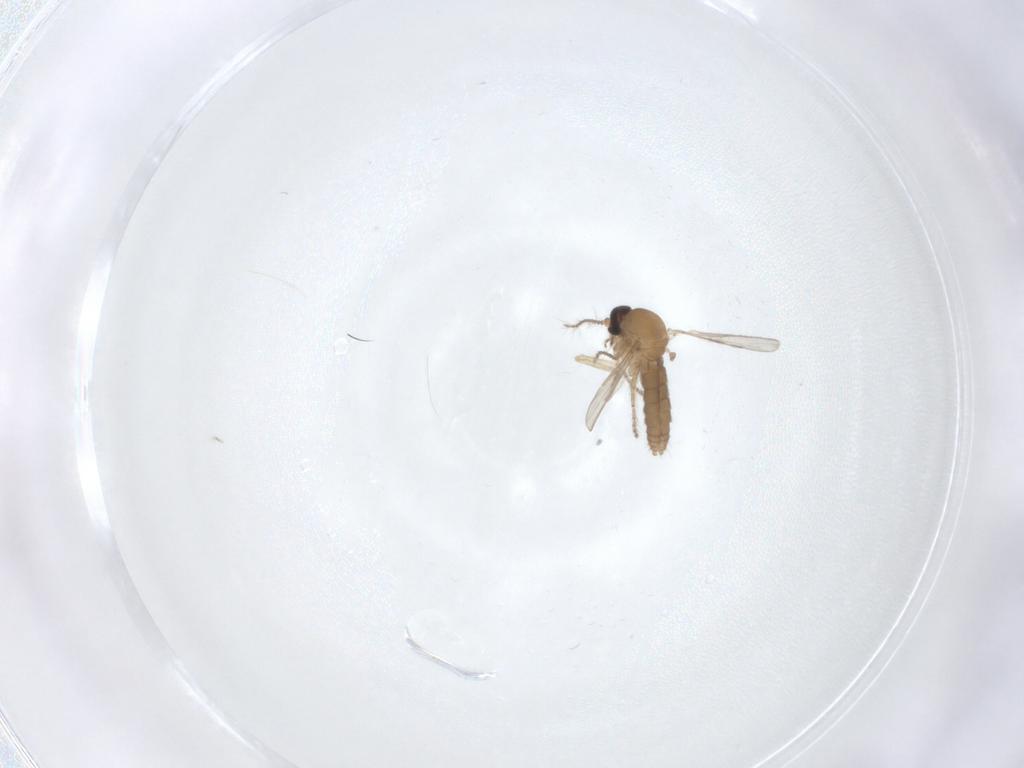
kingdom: Animalia
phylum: Arthropoda
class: Insecta
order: Diptera
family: Ceratopogonidae
